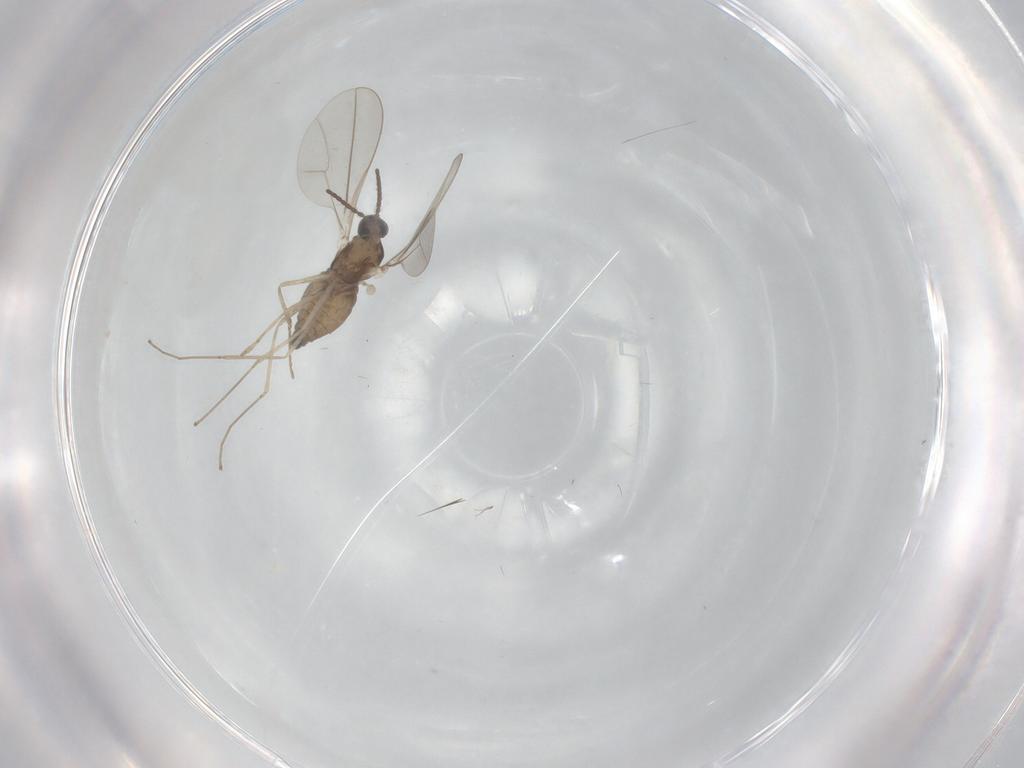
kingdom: Animalia
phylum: Arthropoda
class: Insecta
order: Diptera
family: Cecidomyiidae
